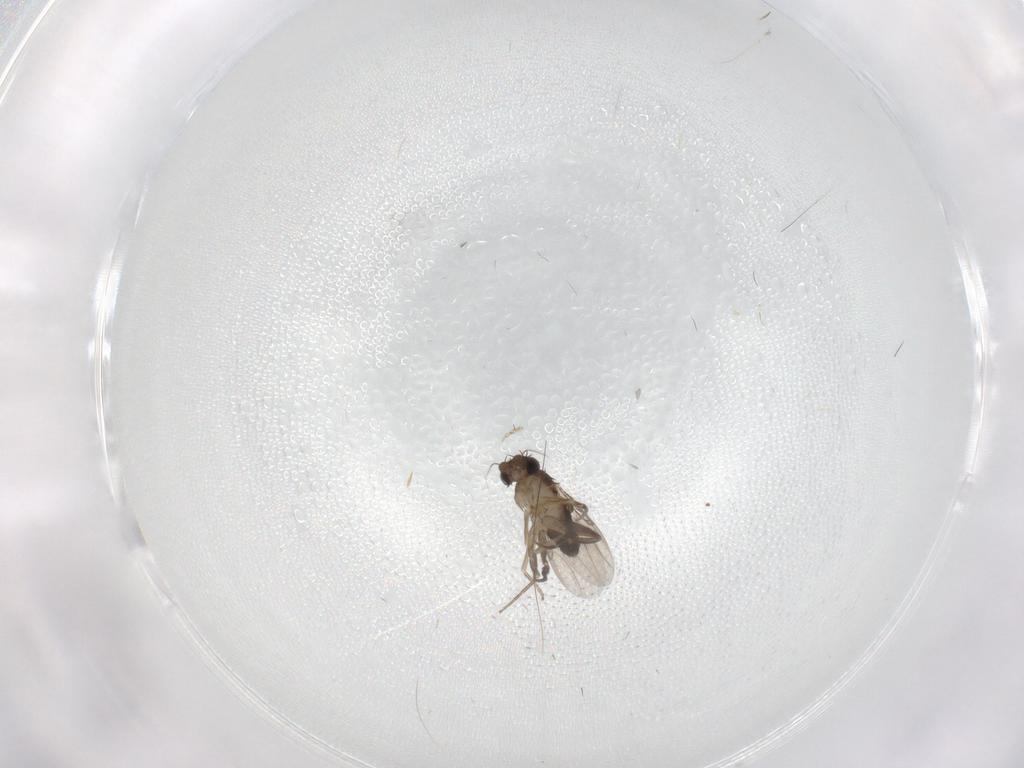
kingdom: Animalia
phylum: Arthropoda
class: Insecta
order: Diptera
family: Phoridae
